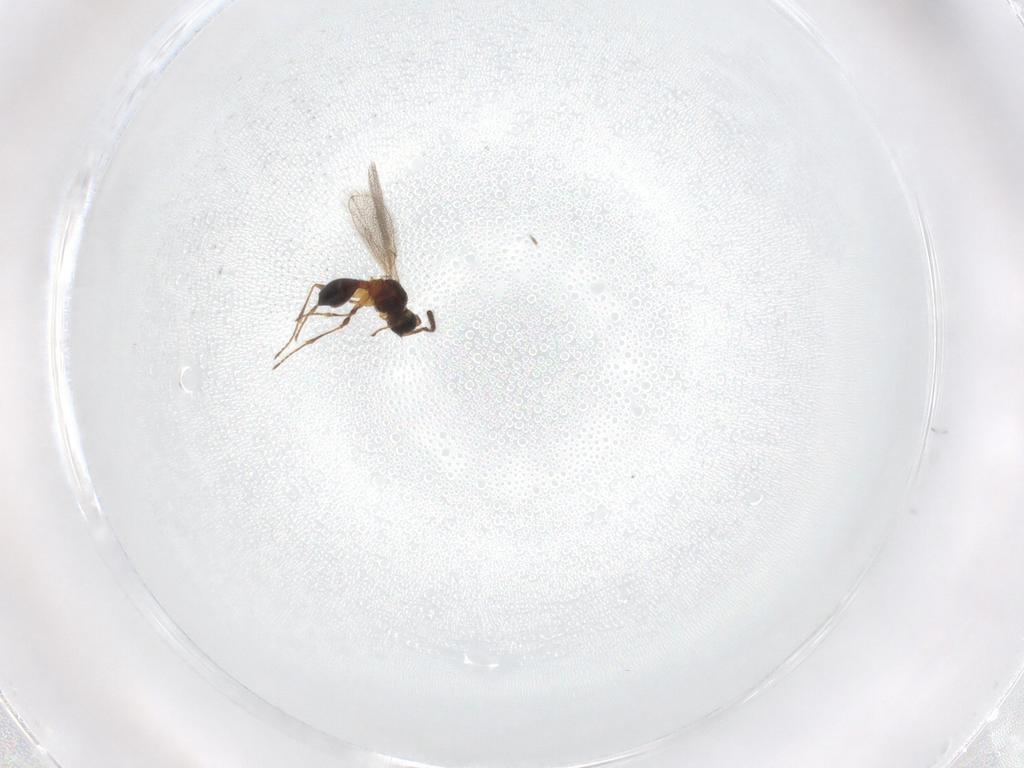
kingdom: Animalia
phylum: Arthropoda
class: Insecta
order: Hymenoptera
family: Diapriidae
